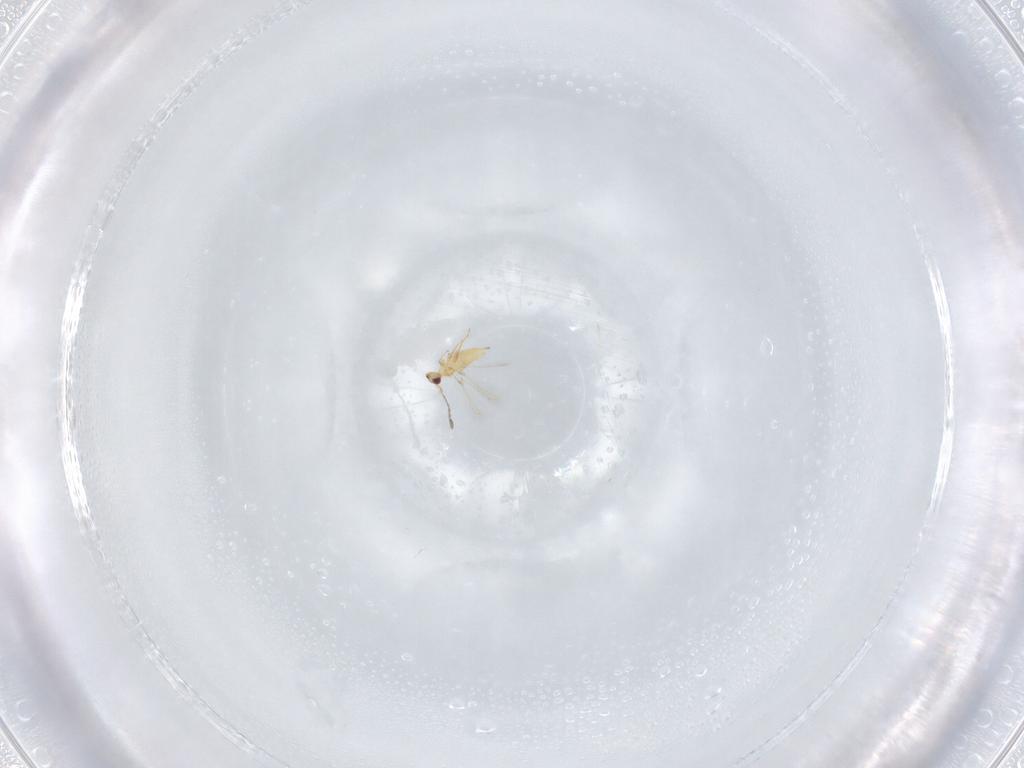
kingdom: Animalia
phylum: Arthropoda
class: Insecta
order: Hymenoptera
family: Mymaridae
